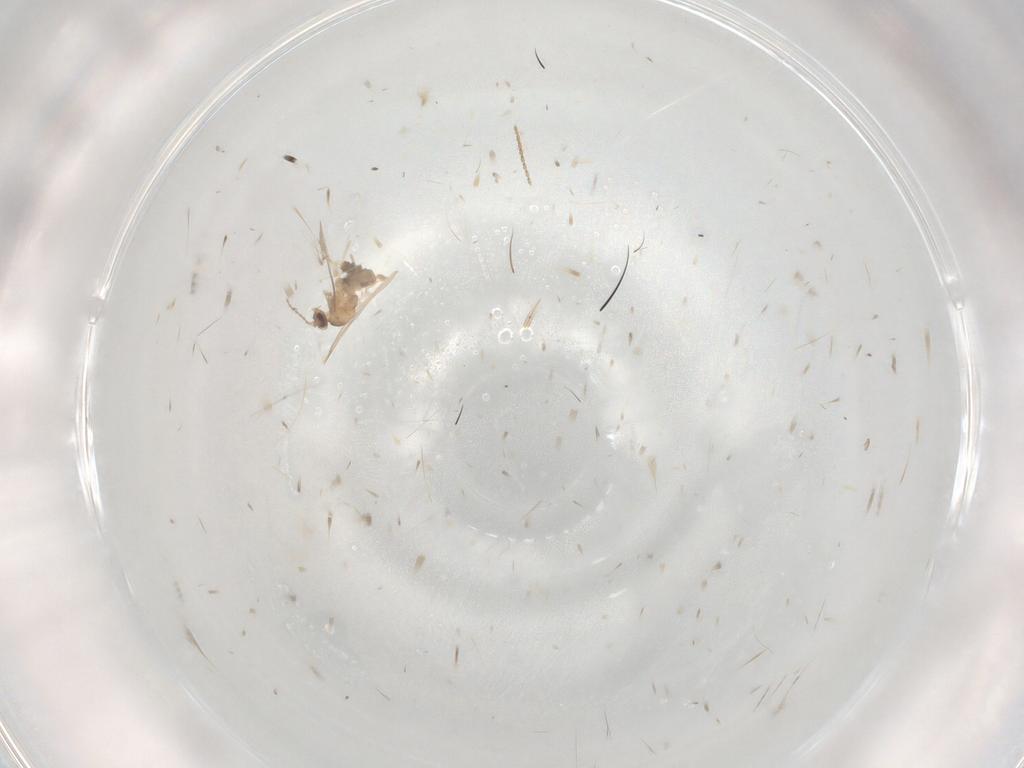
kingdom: Animalia
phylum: Arthropoda
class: Insecta
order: Diptera
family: Cecidomyiidae
